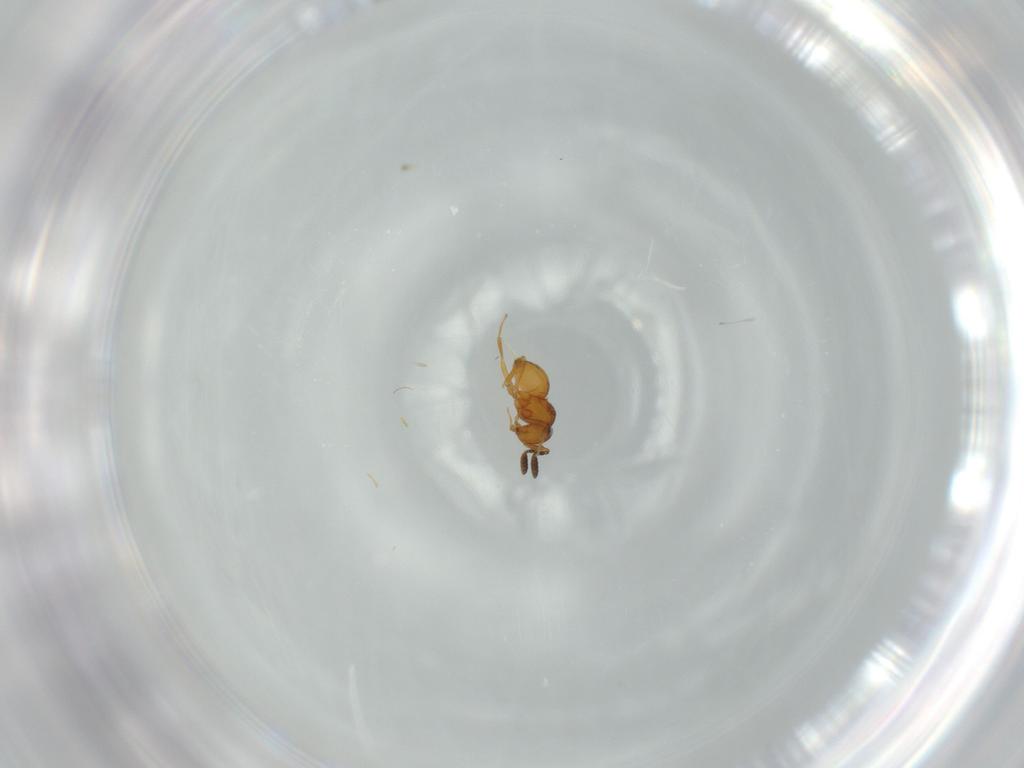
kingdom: Animalia
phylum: Arthropoda
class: Insecta
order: Hymenoptera
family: Scelionidae
